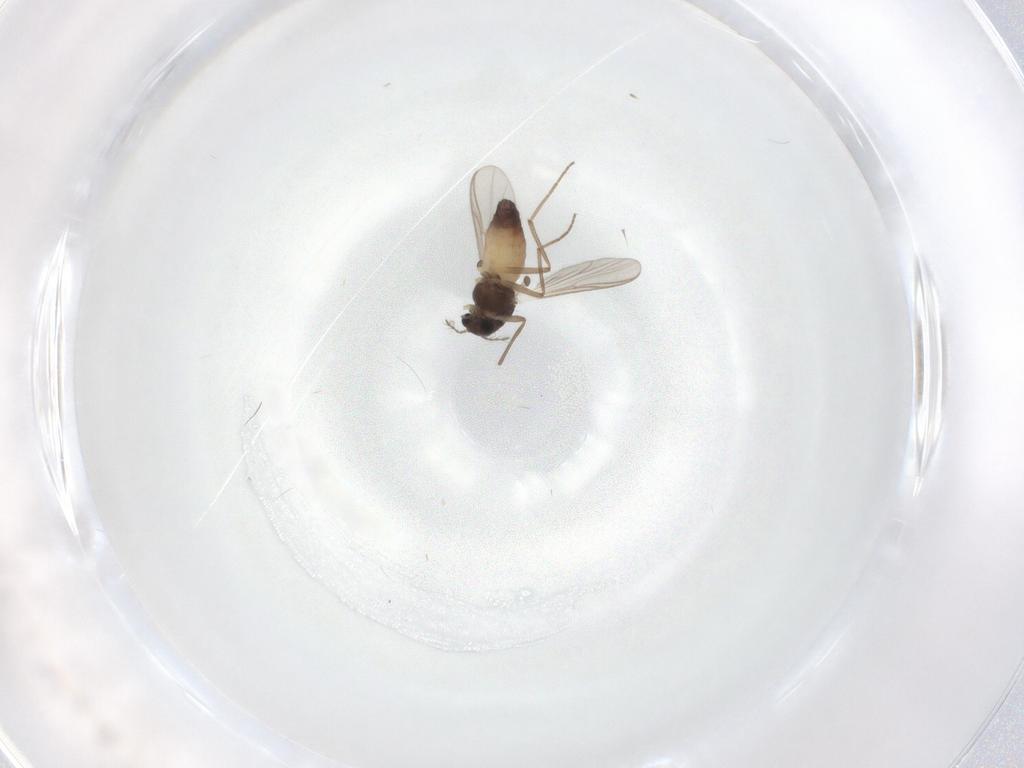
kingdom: Animalia
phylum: Arthropoda
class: Insecta
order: Diptera
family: Chironomidae
